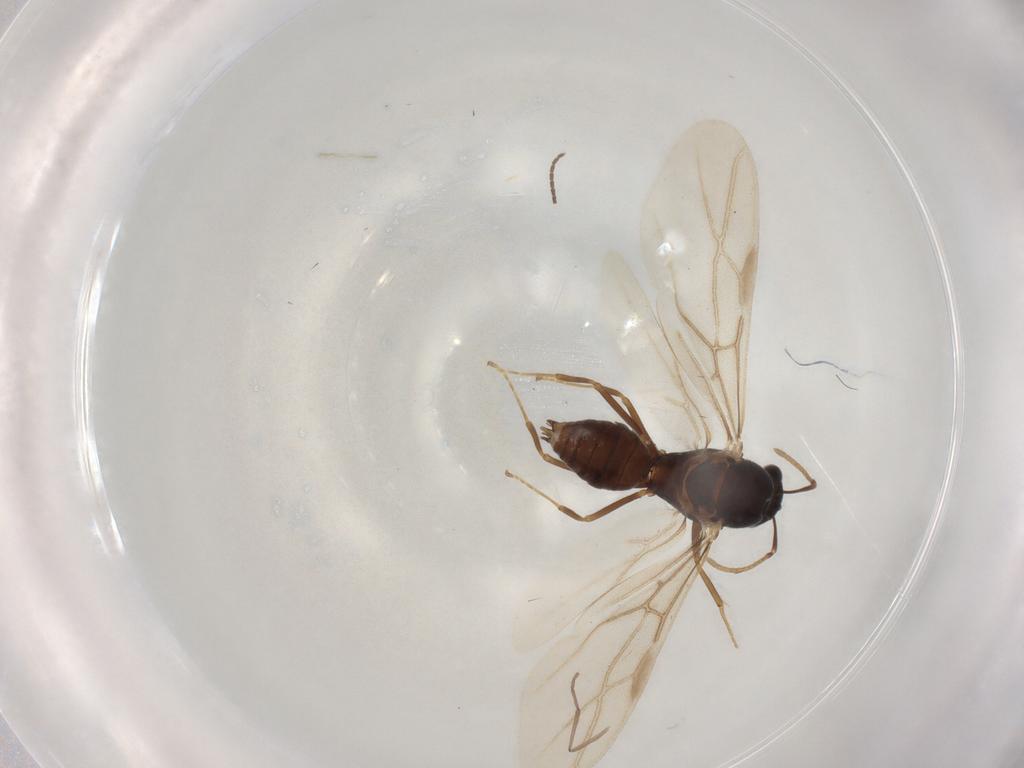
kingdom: Animalia
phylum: Arthropoda
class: Insecta
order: Hymenoptera
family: Formicidae
